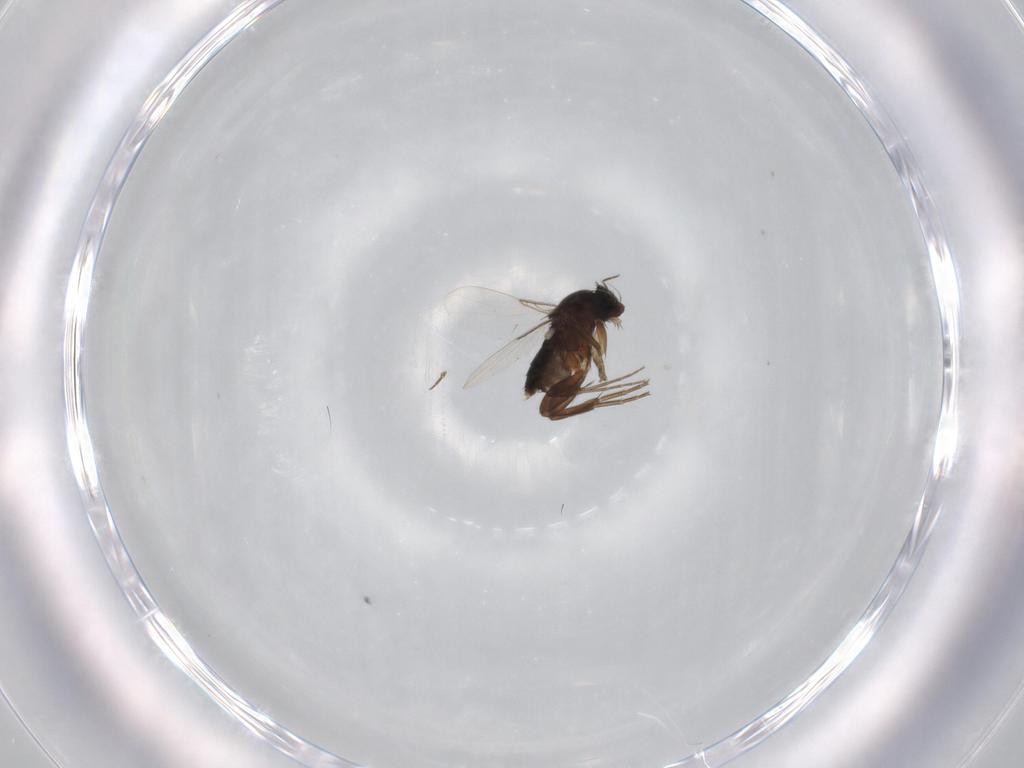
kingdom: Animalia
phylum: Arthropoda
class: Insecta
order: Diptera
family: Phoridae
